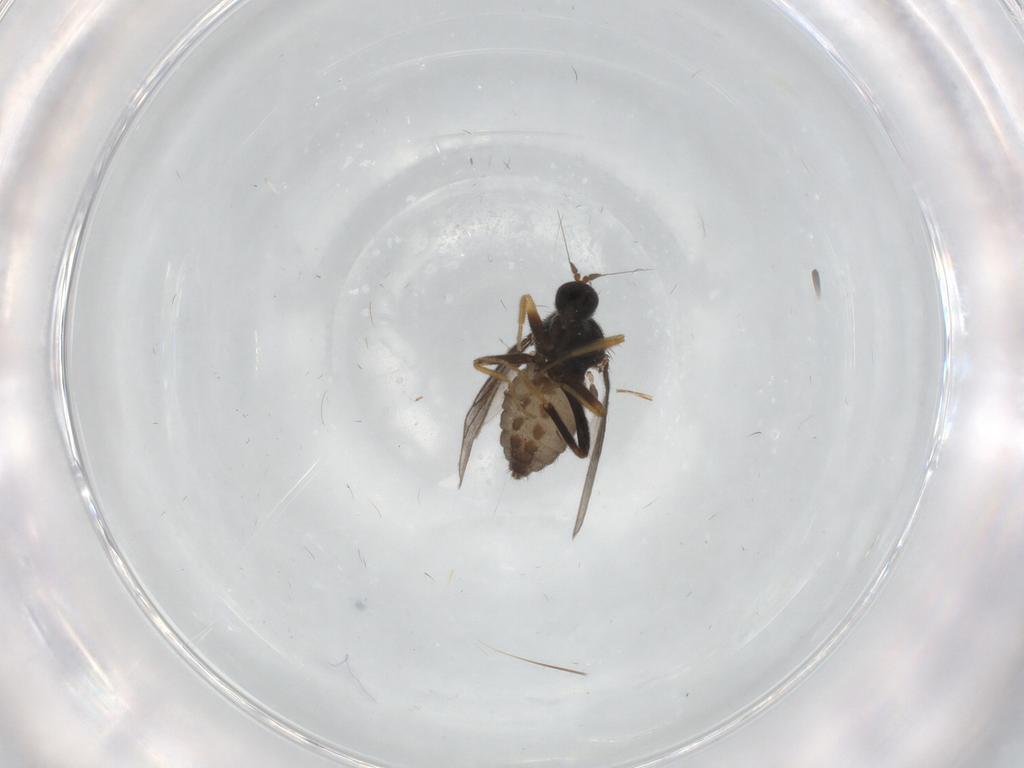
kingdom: Animalia
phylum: Arthropoda
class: Insecta
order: Diptera
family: Hybotidae
